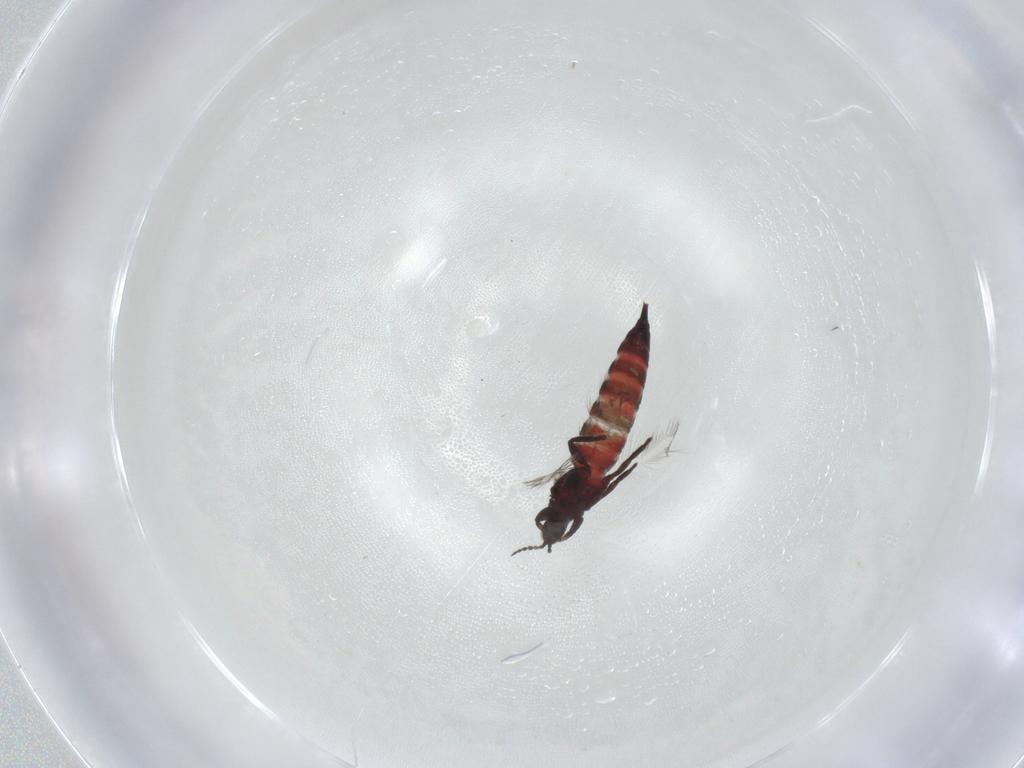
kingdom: Animalia
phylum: Arthropoda
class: Insecta
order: Thysanoptera
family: Phlaeothripidae
